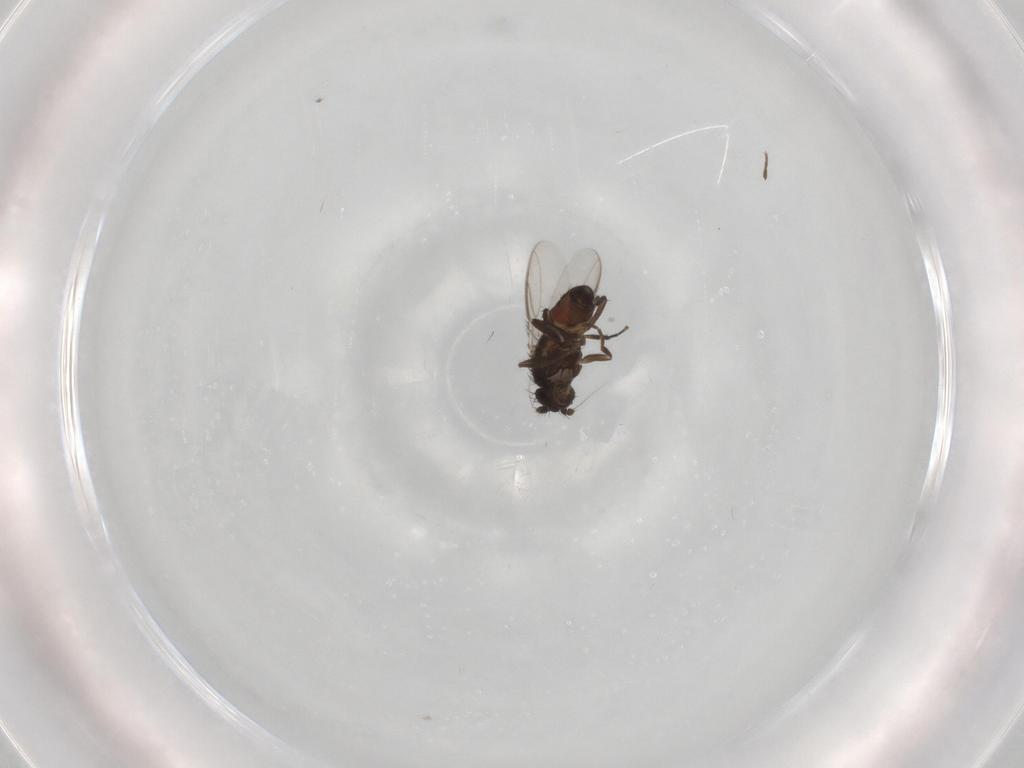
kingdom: Animalia
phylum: Arthropoda
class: Insecta
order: Diptera
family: Sphaeroceridae
